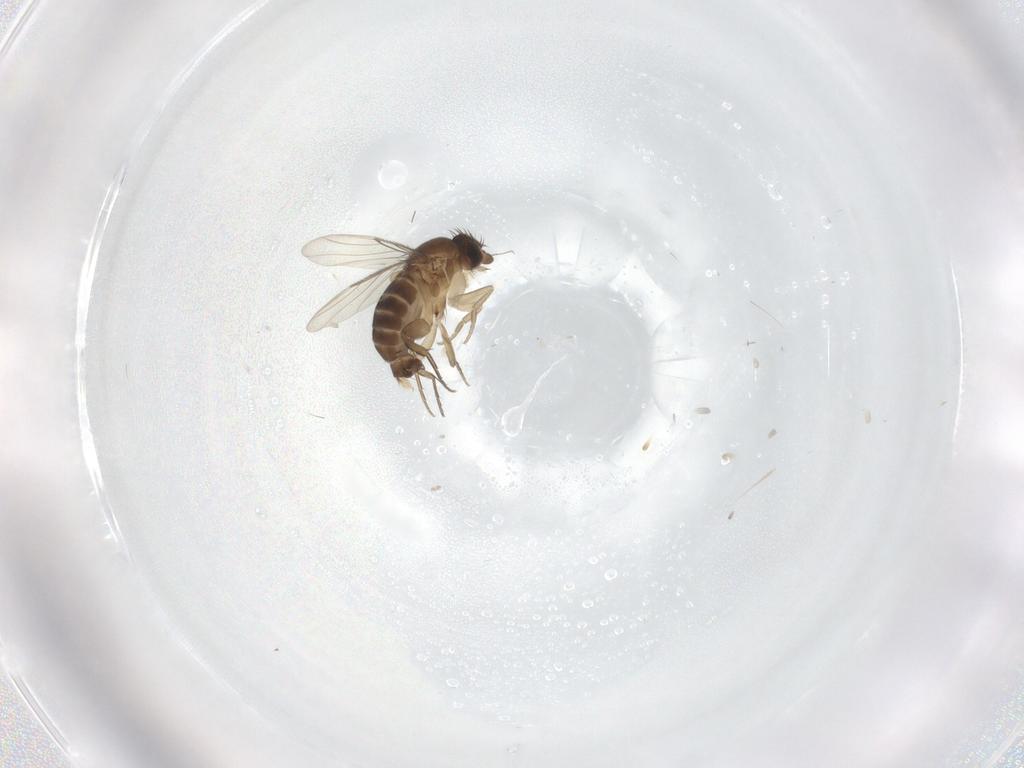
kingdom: Animalia
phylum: Arthropoda
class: Insecta
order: Diptera
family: Phoridae
